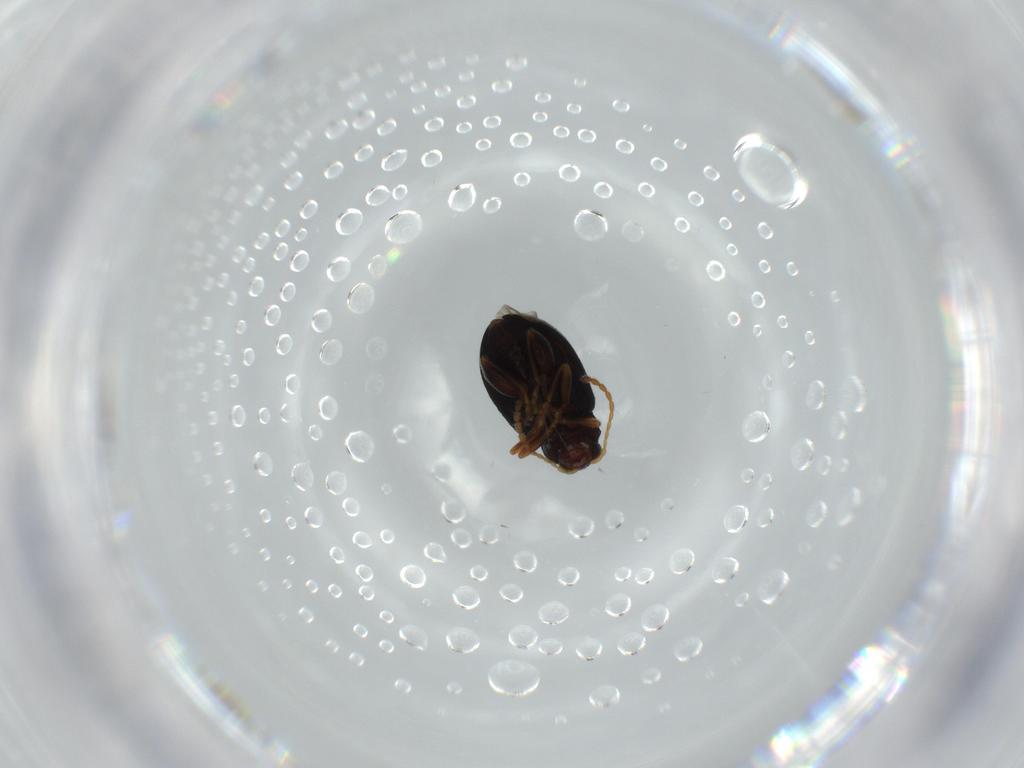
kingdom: Animalia
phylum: Arthropoda
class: Insecta
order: Coleoptera
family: Chrysomelidae
